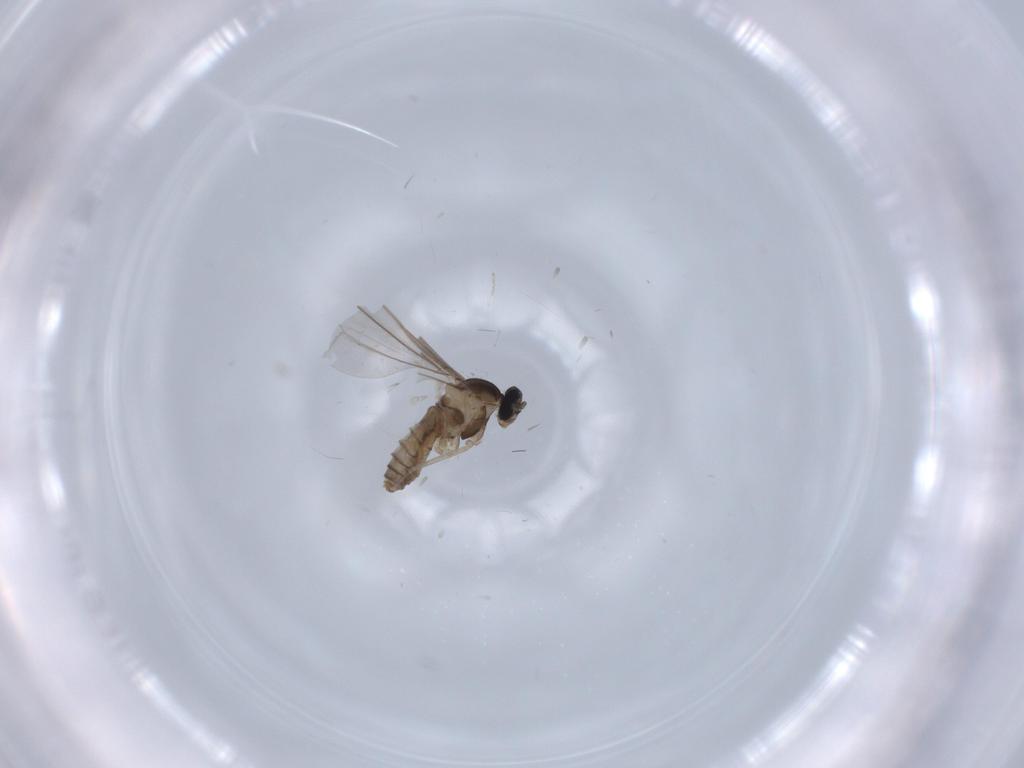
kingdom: Animalia
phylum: Arthropoda
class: Insecta
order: Diptera
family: Cecidomyiidae
